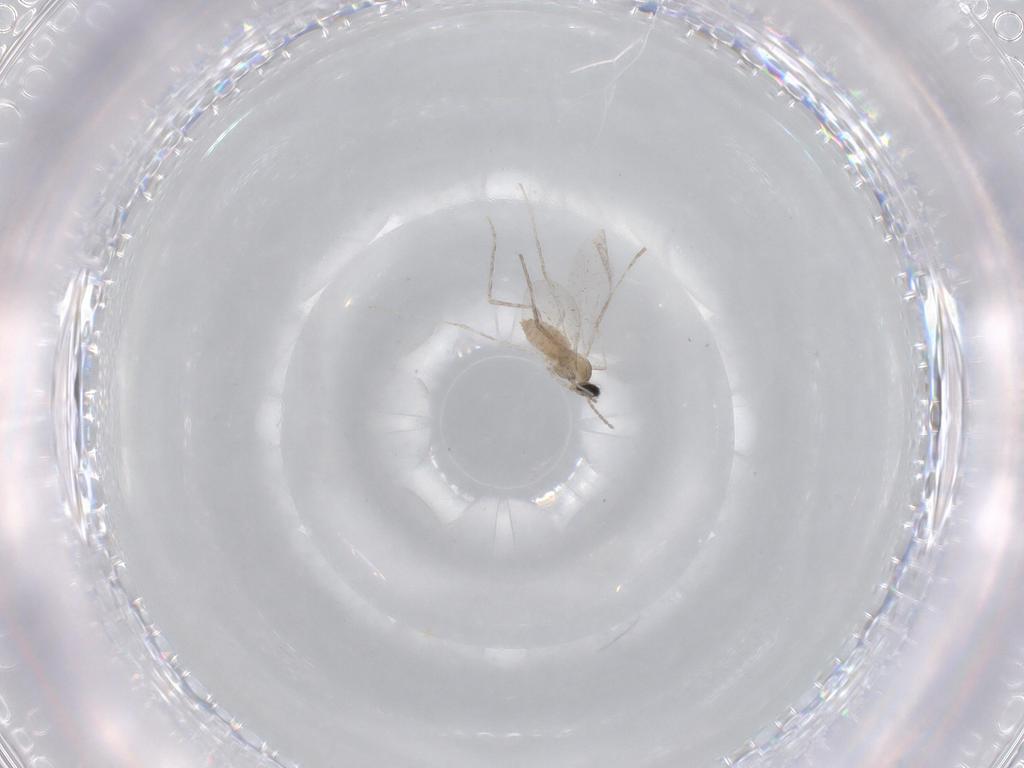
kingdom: Animalia
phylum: Arthropoda
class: Insecta
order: Diptera
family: Cecidomyiidae
